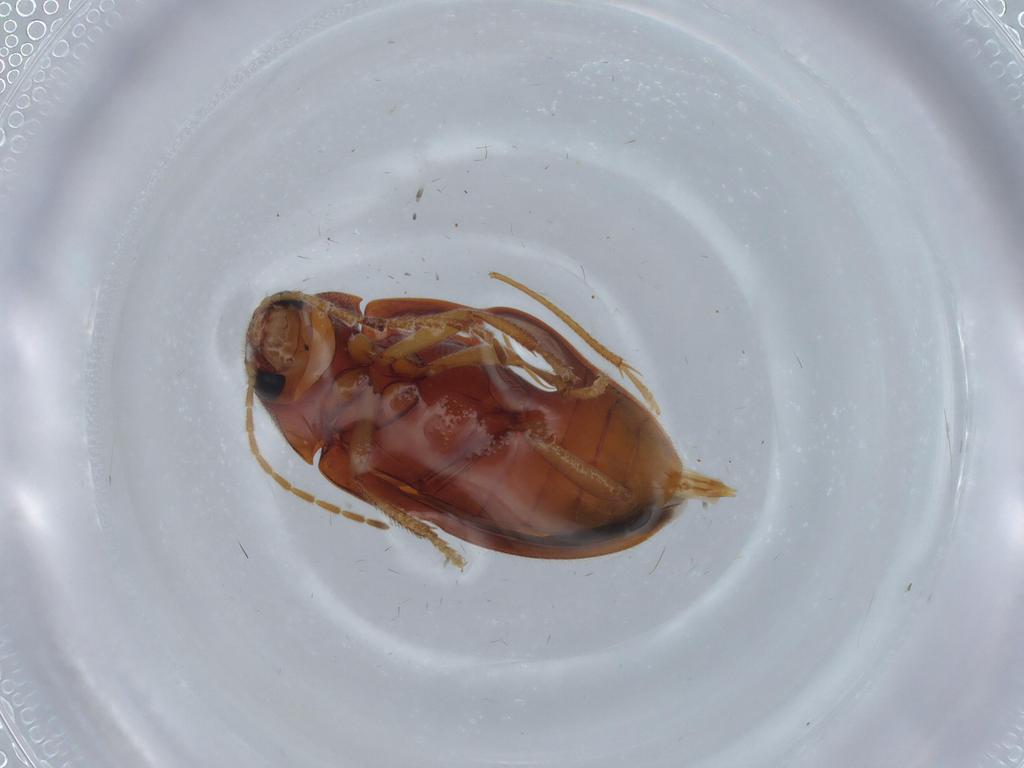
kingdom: Animalia
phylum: Arthropoda
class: Insecta
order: Coleoptera
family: Ptilodactylidae
